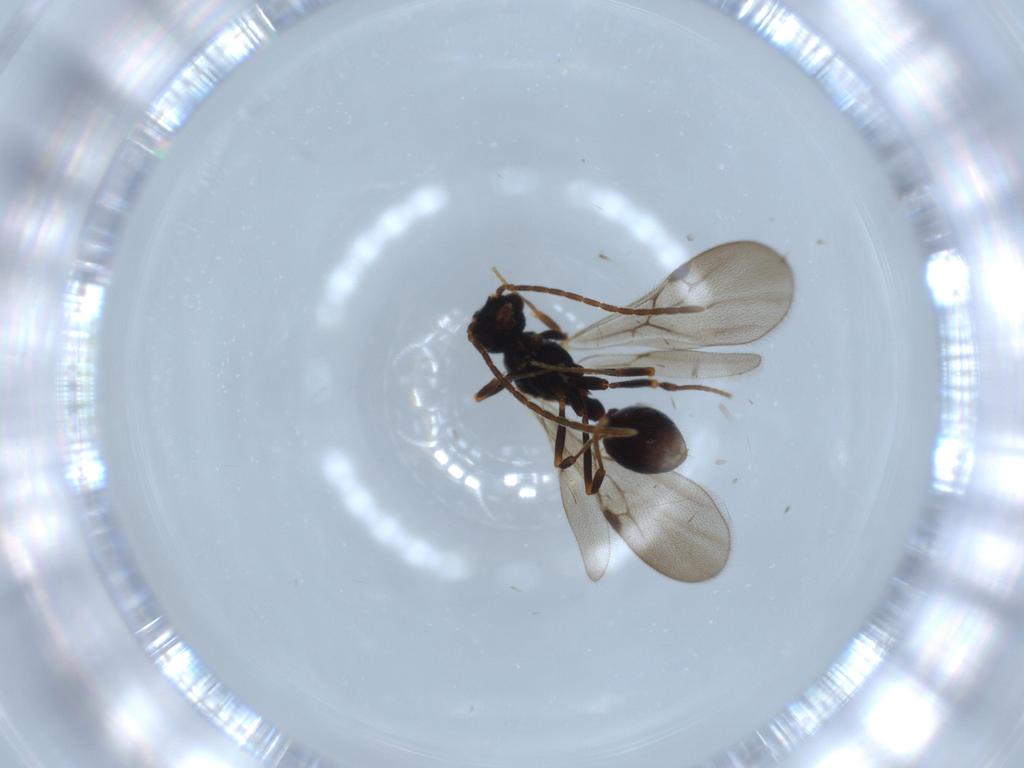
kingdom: Animalia
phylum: Arthropoda
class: Insecta
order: Hymenoptera
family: Formicidae
